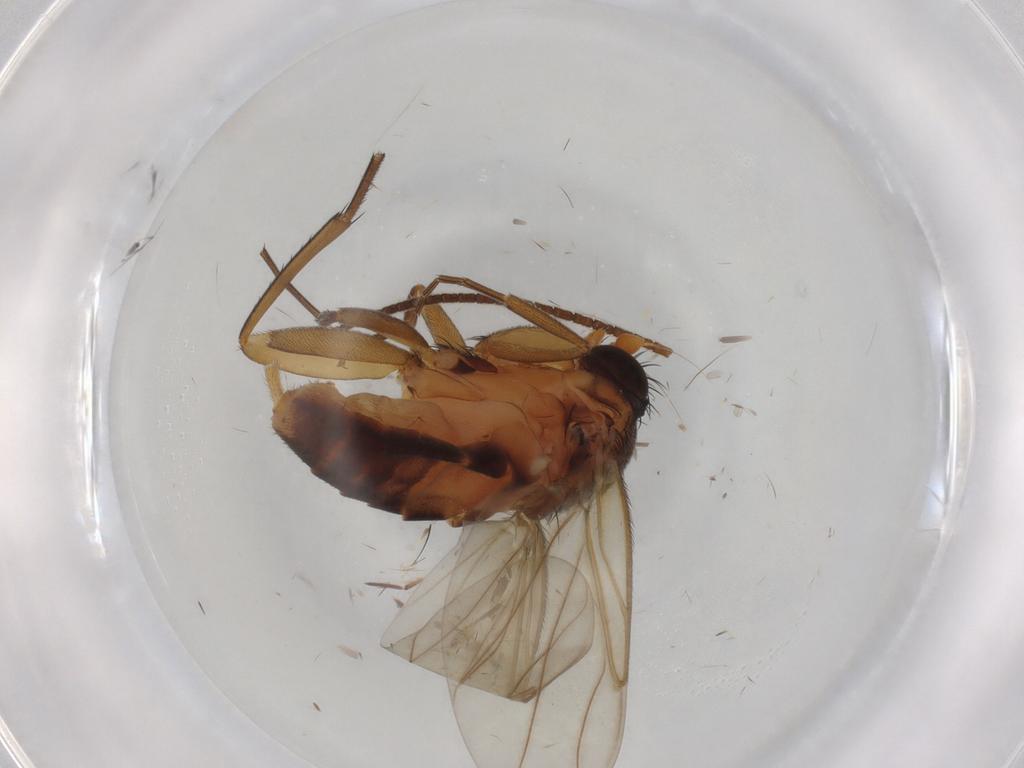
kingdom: Animalia
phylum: Arthropoda
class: Insecta
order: Diptera
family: Phoridae
